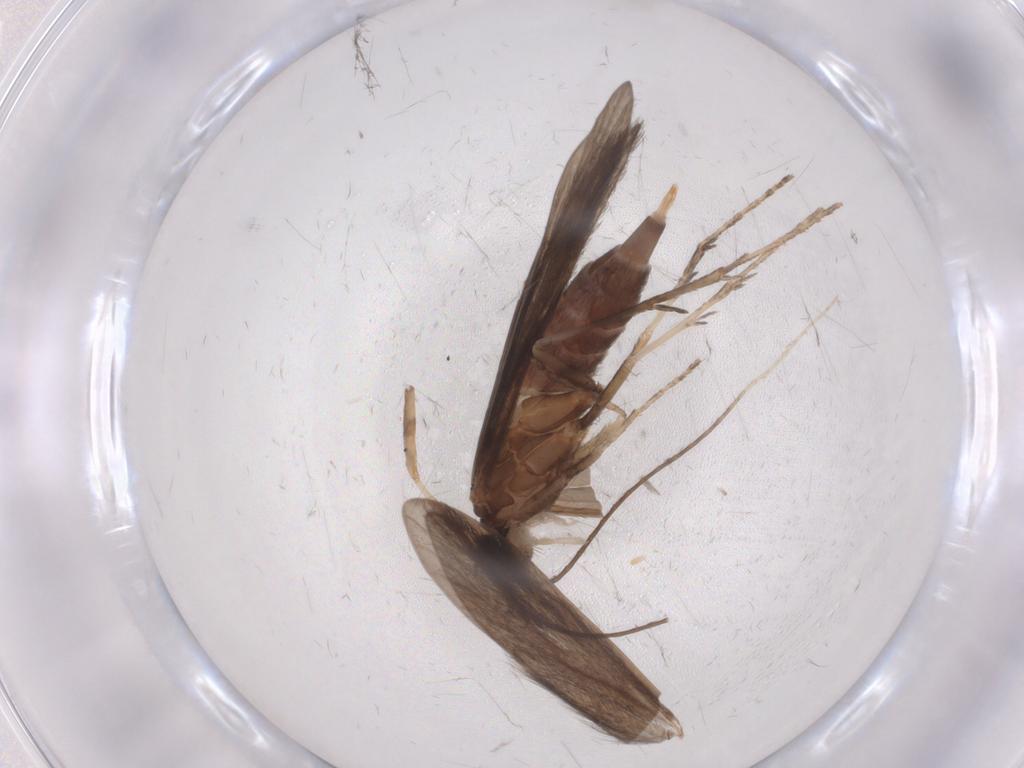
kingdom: Animalia
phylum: Arthropoda
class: Insecta
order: Trichoptera
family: Xiphocentronidae
